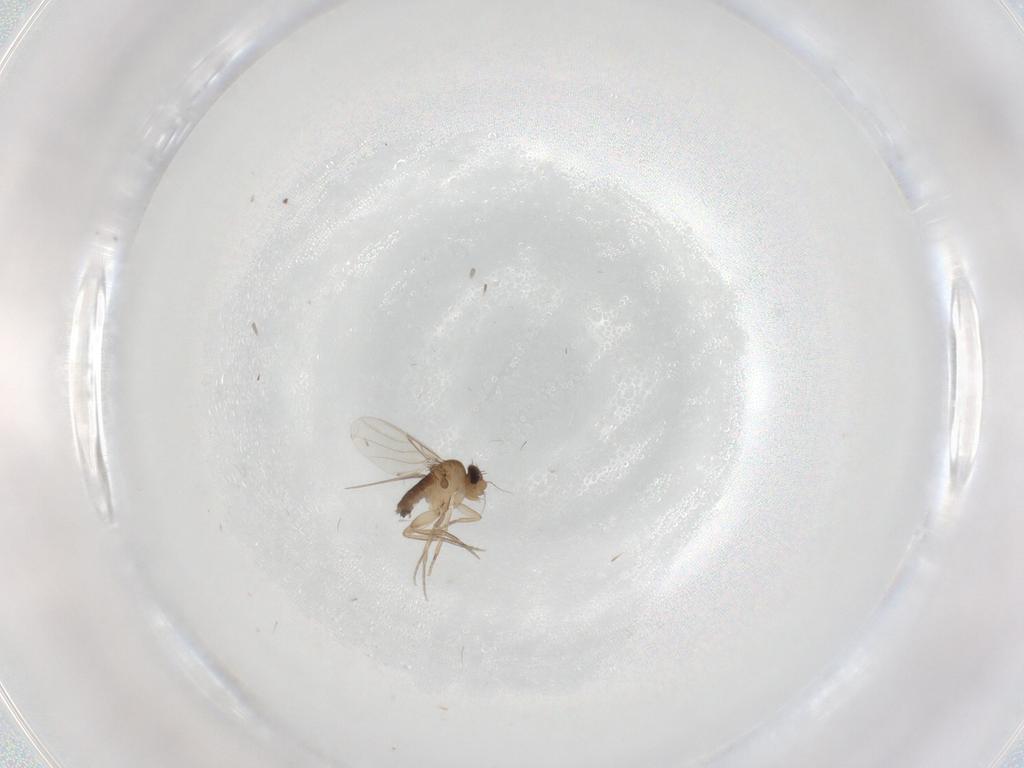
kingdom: Animalia
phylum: Arthropoda
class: Insecta
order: Diptera
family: Phoridae
